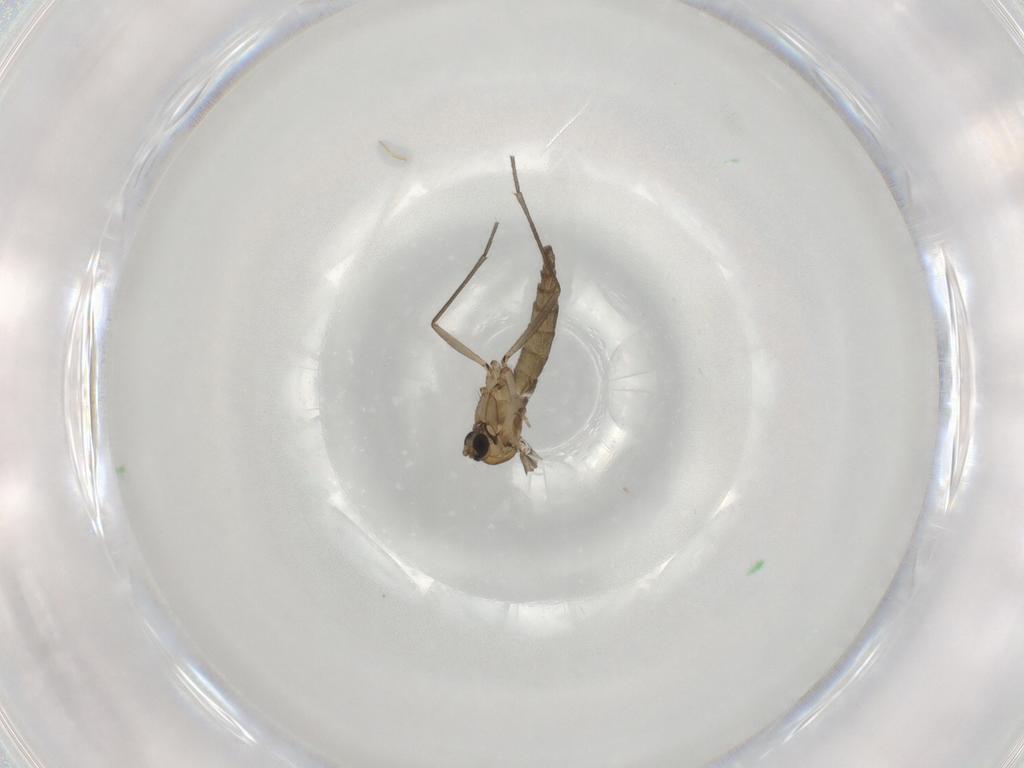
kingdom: Animalia
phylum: Arthropoda
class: Insecta
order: Diptera
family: Sciaridae
